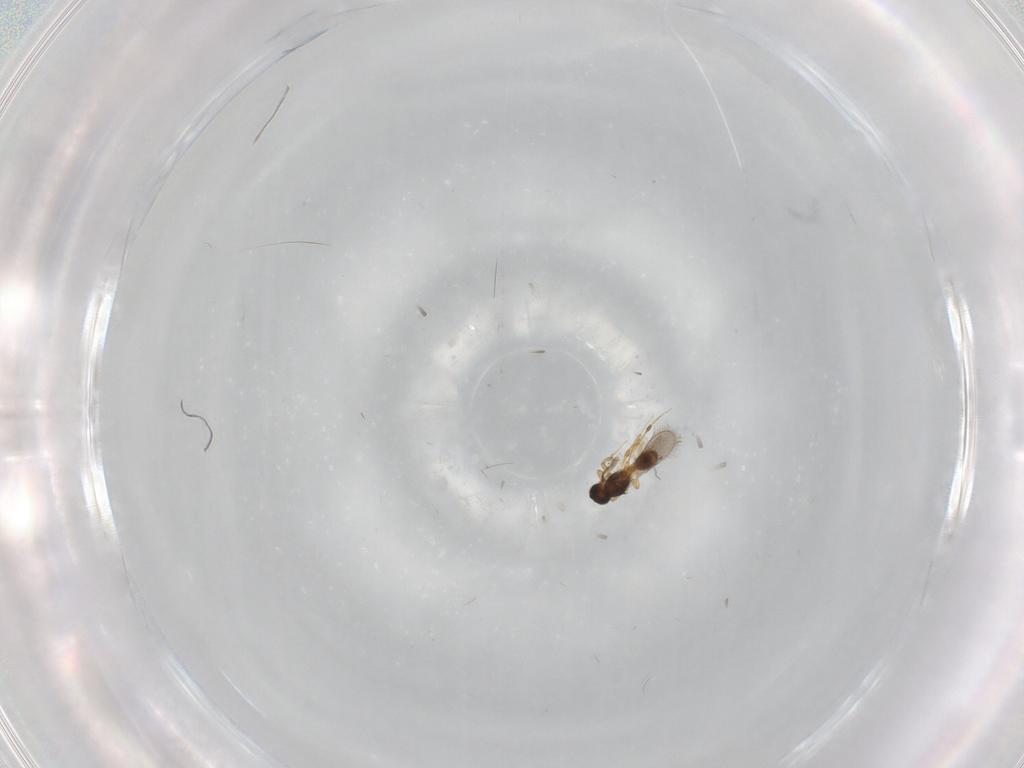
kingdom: Animalia
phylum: Arthropoda
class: Insecta
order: Hymenoptera
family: Platygastridae
